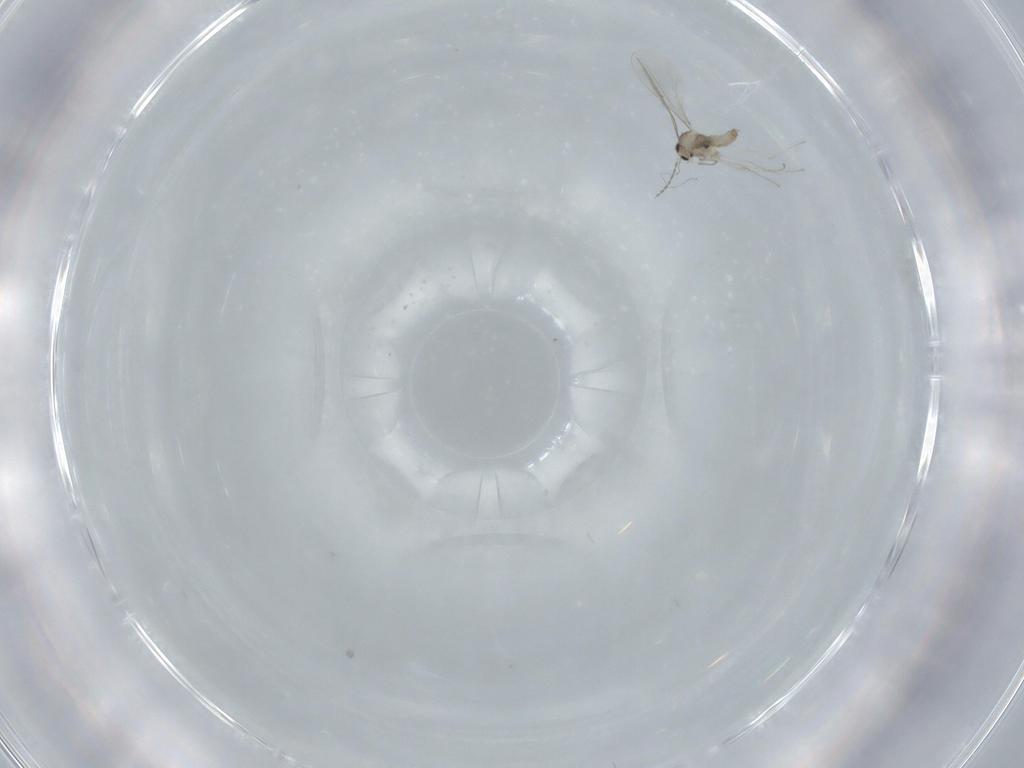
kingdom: Animalia
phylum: Arthropoda
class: Insecta
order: Diptera
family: Cecidomyiidae
